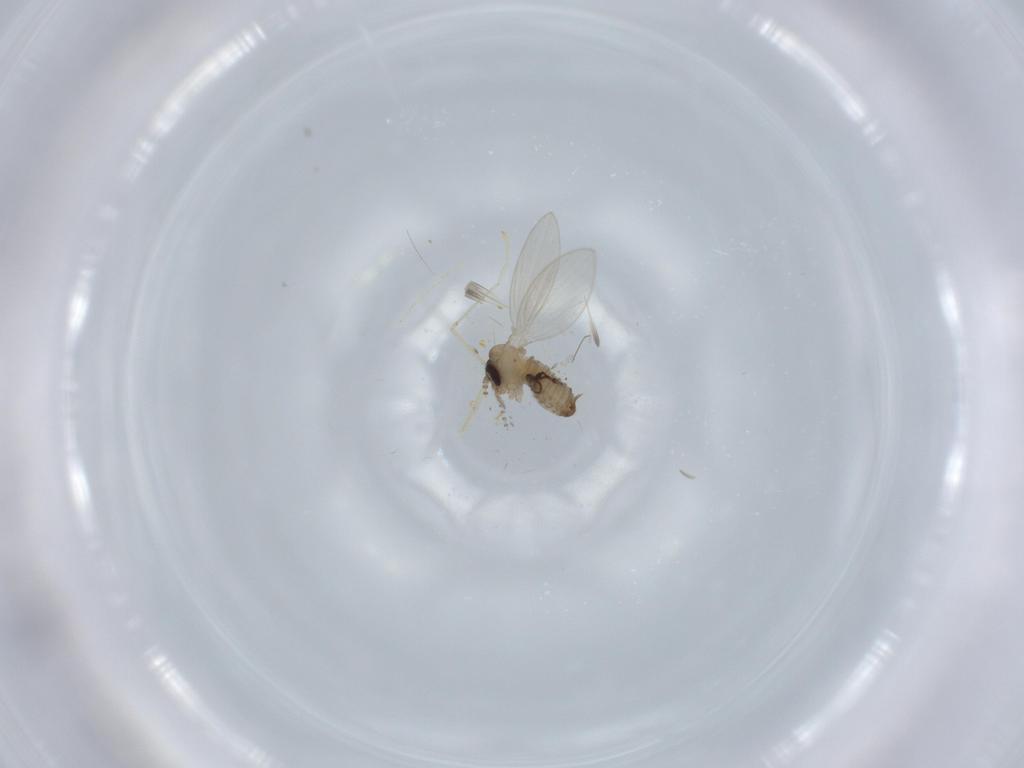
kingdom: Animalia
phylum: Arthropoda
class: Insecta
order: Diptera
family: Psychodidae
